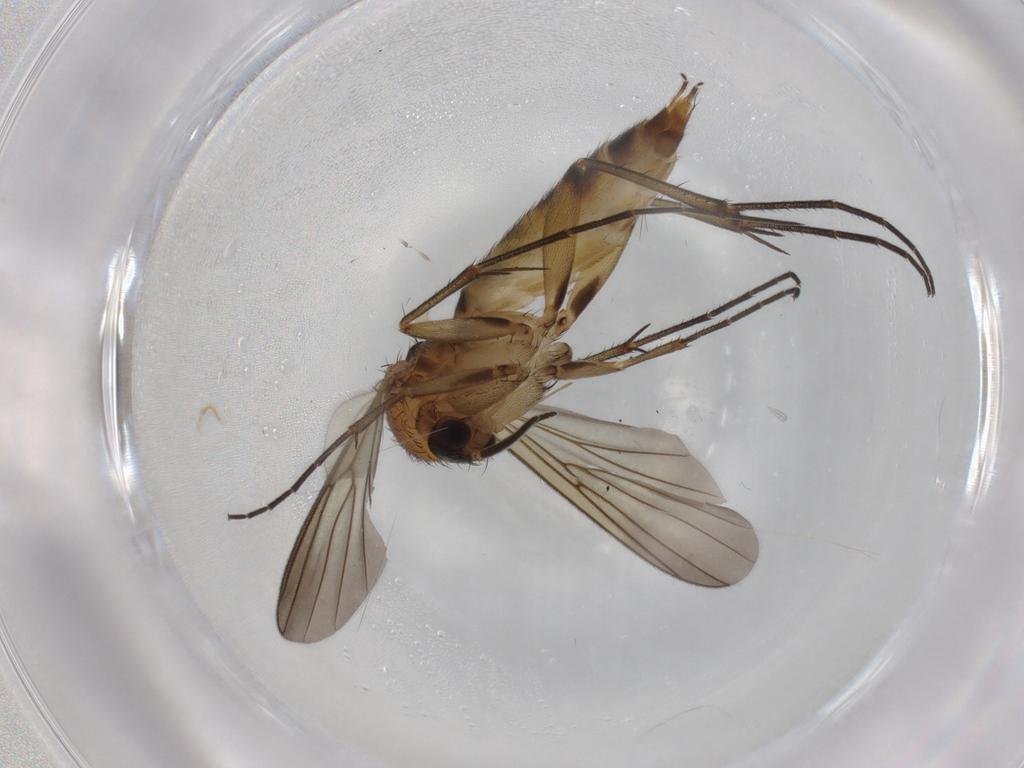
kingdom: Animalia
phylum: Arthropoda
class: Insecta
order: Diptera
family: Mycetophilidae
